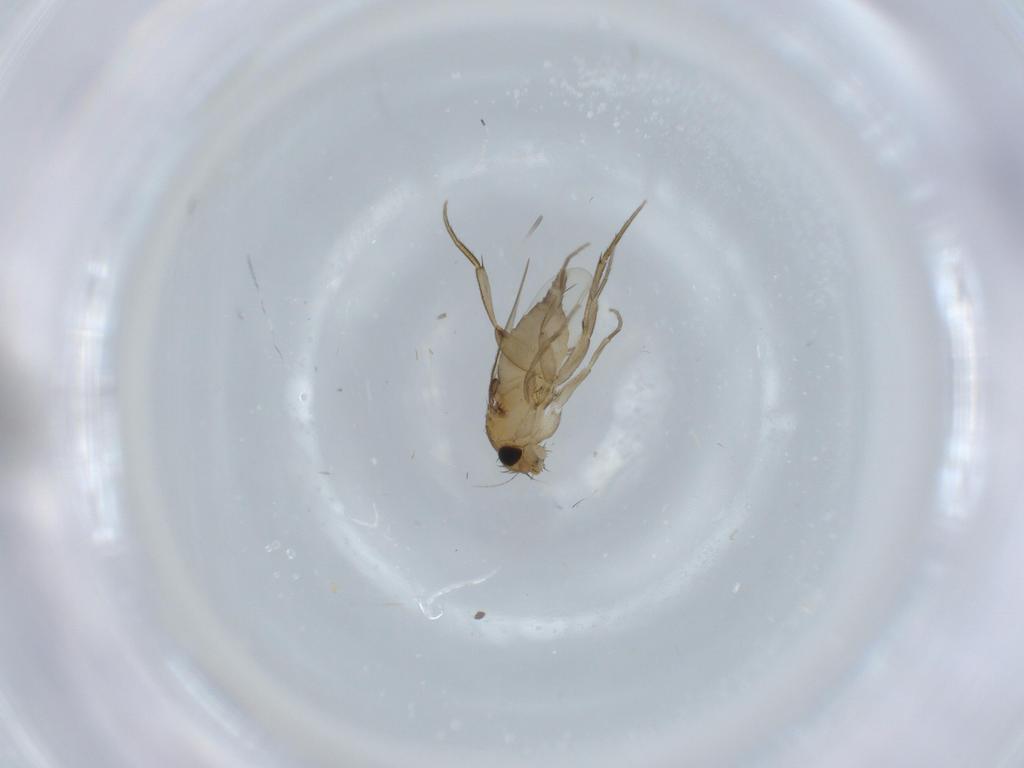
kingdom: Animalia
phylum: Arthropoda
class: Insecta
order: Diptera
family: Phoridae
